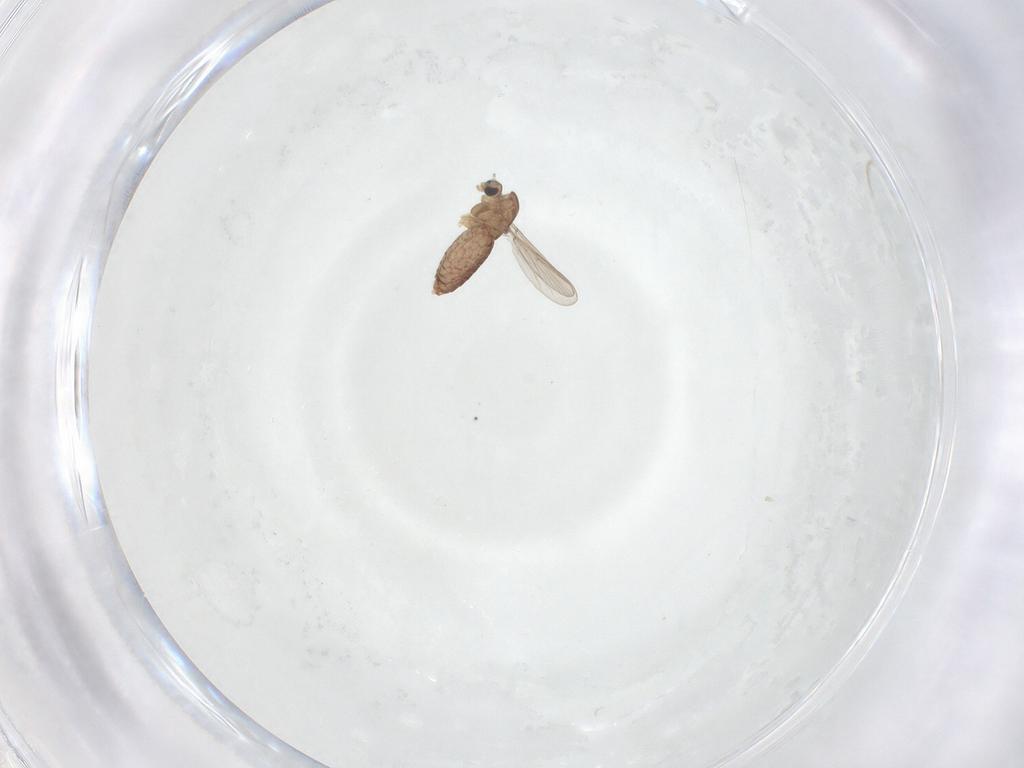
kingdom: Animalia
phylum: Arthropoda
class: Insecta
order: Diptera
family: Chironomidae
